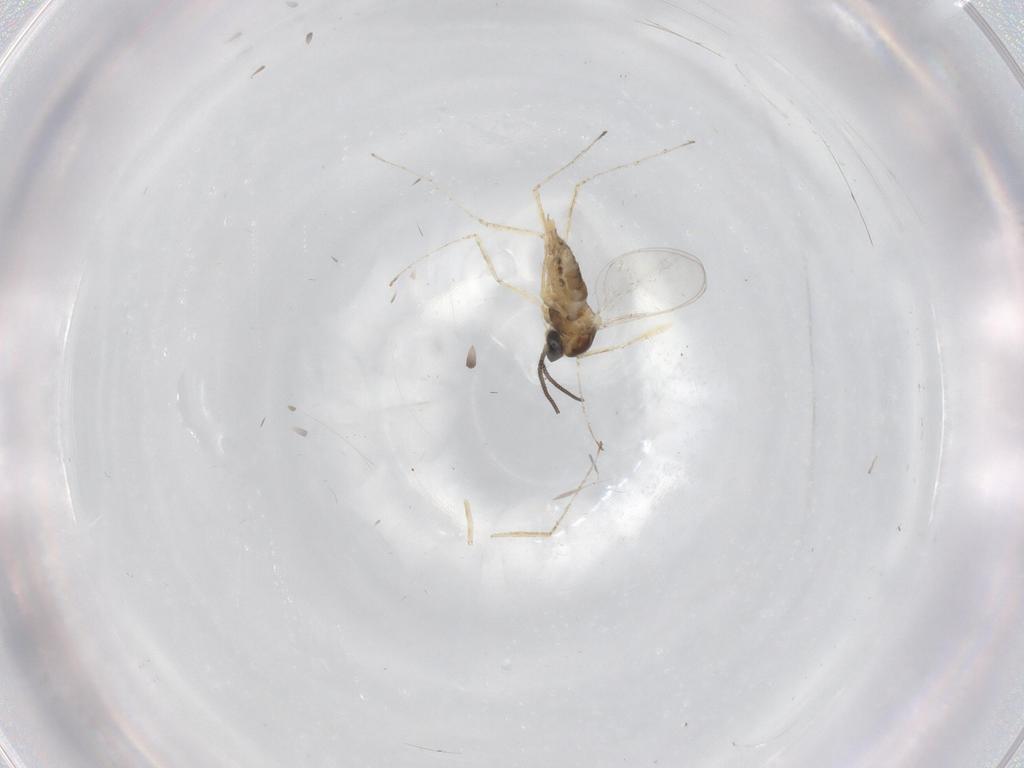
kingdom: Animalia
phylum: Arthropoda
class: Insecta
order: Diptera
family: Cecidomyiidae
